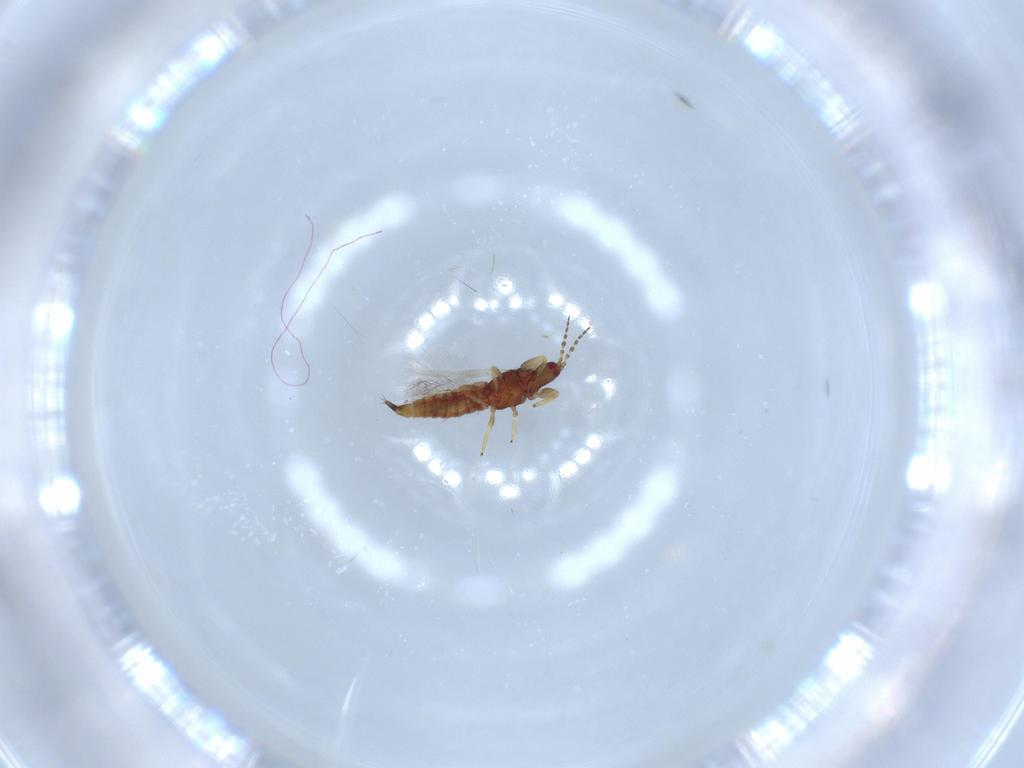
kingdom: Animalia
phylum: Arthropoda
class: Insecta
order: Thysanoptera
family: Phlaeothripidae
